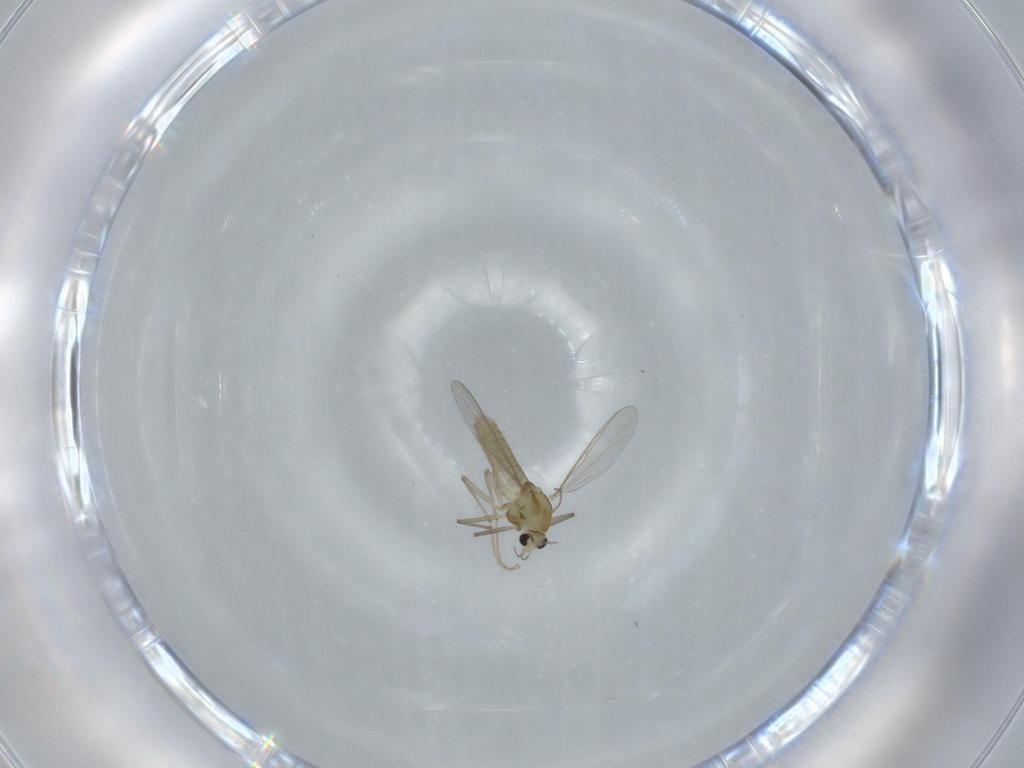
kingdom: Animalia
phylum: Arthropoda
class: Insecta
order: Diptera
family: Chironomidae
